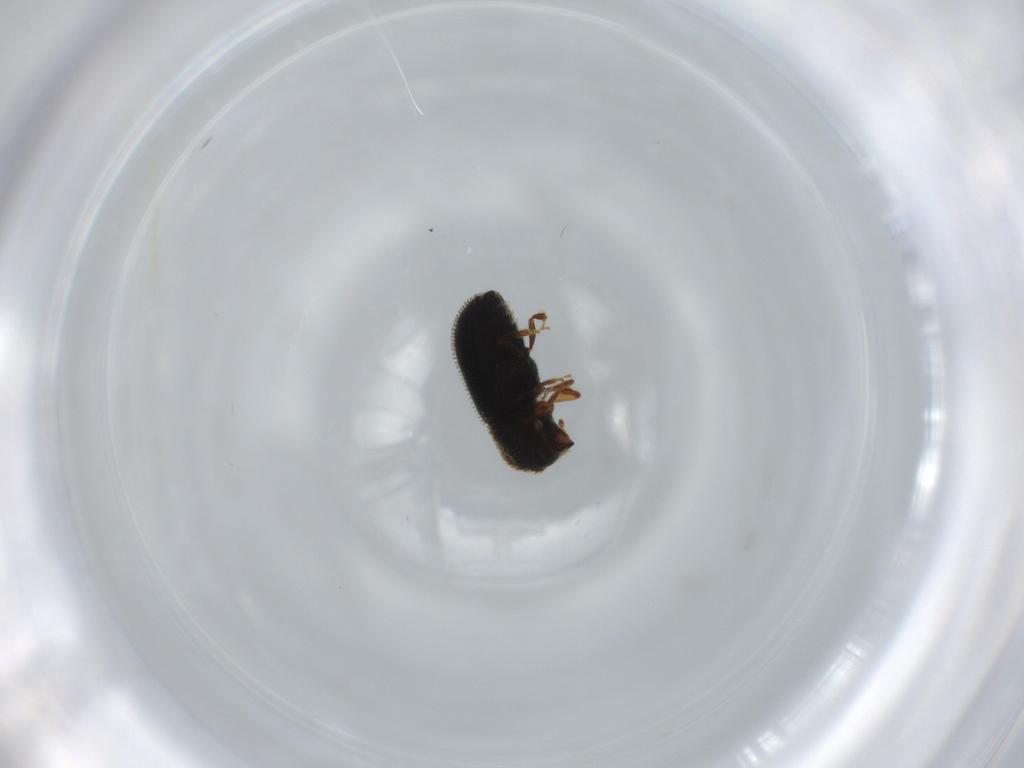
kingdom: Animalia
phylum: Arthropoda
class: Insecta
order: Coleoptera
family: Curculionidae
